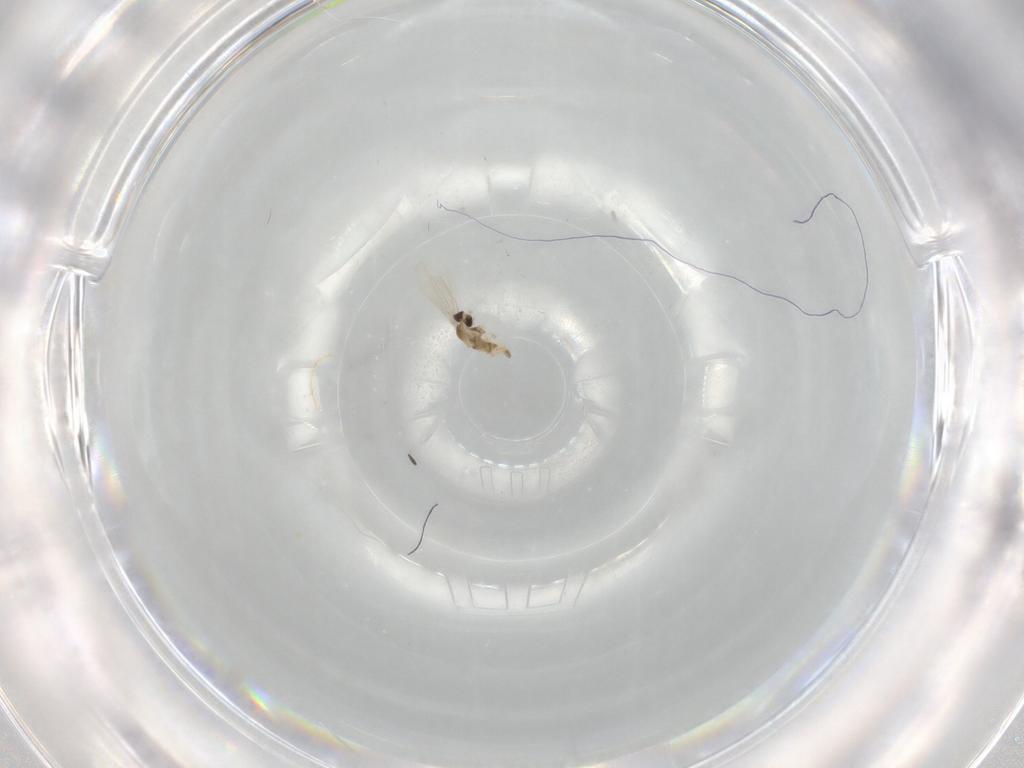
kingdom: Animalia
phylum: Arthropoda
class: Insecta
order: Diptera
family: Cecidomyiidae
